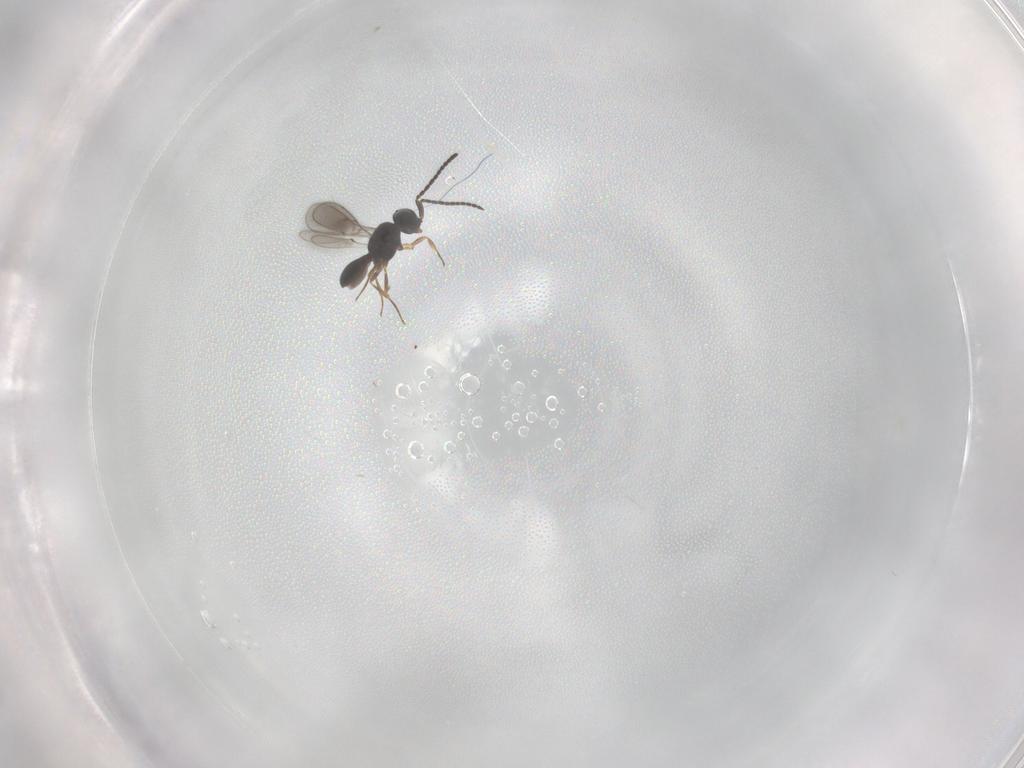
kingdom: Animalia
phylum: Arthropoda
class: Insecta
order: Hymenoptera
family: Scelionidae
